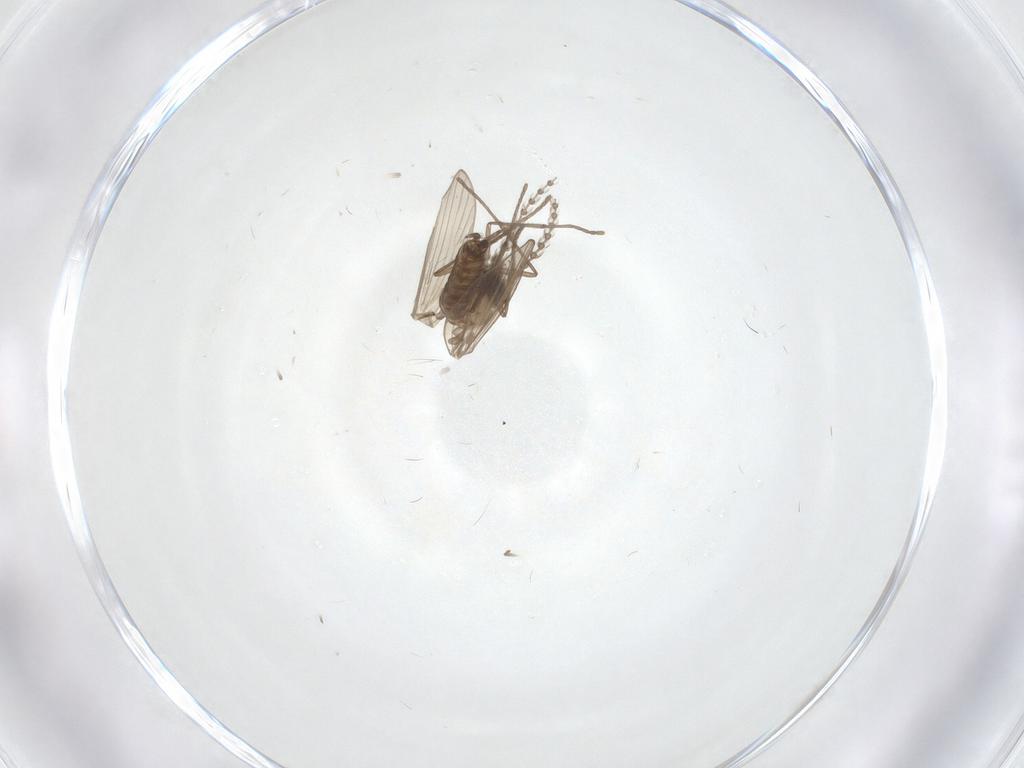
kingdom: Animalia
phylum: Arthropoda
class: Insecta
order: Diptera
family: Psychodidae
